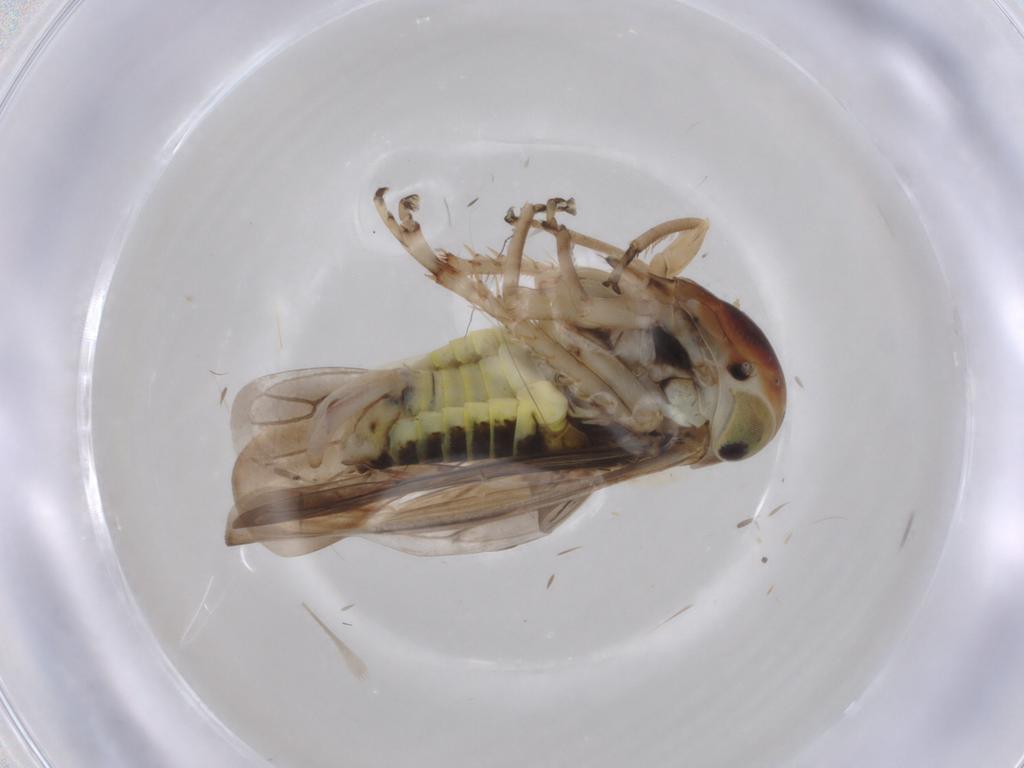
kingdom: Animalia
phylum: Arthropoda
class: Insecta
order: Hemiptera
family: Cicadellidae
